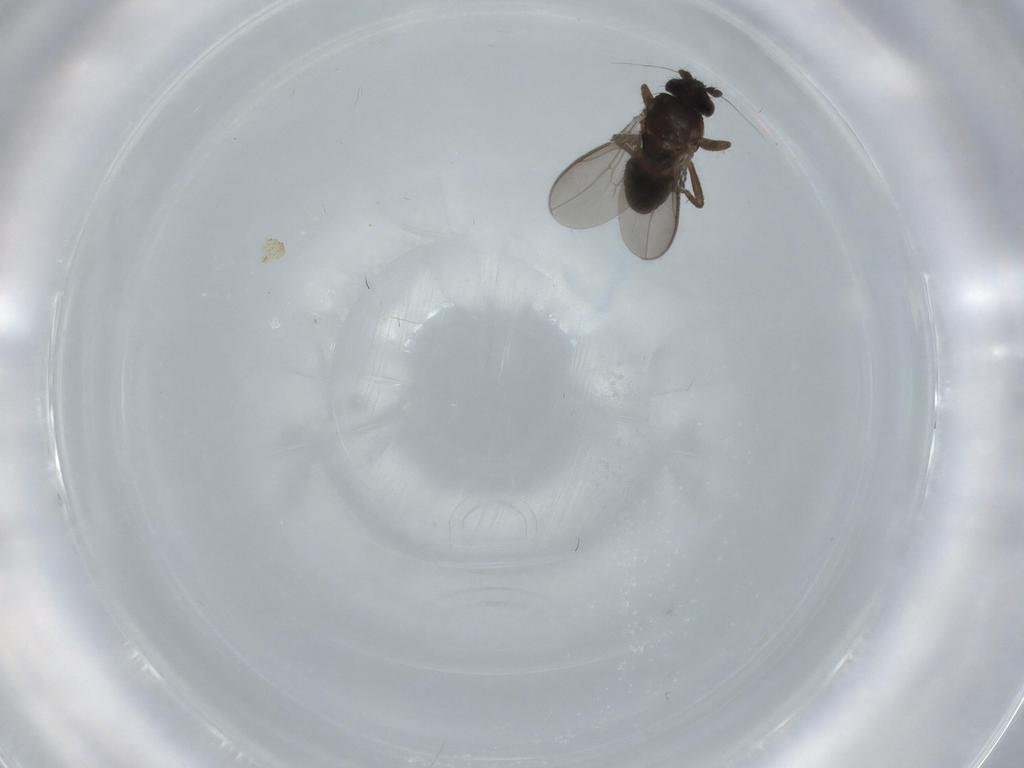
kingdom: Animalia
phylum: Arthropoda
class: Insecta
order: Diptera
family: Sphaeroceridae
